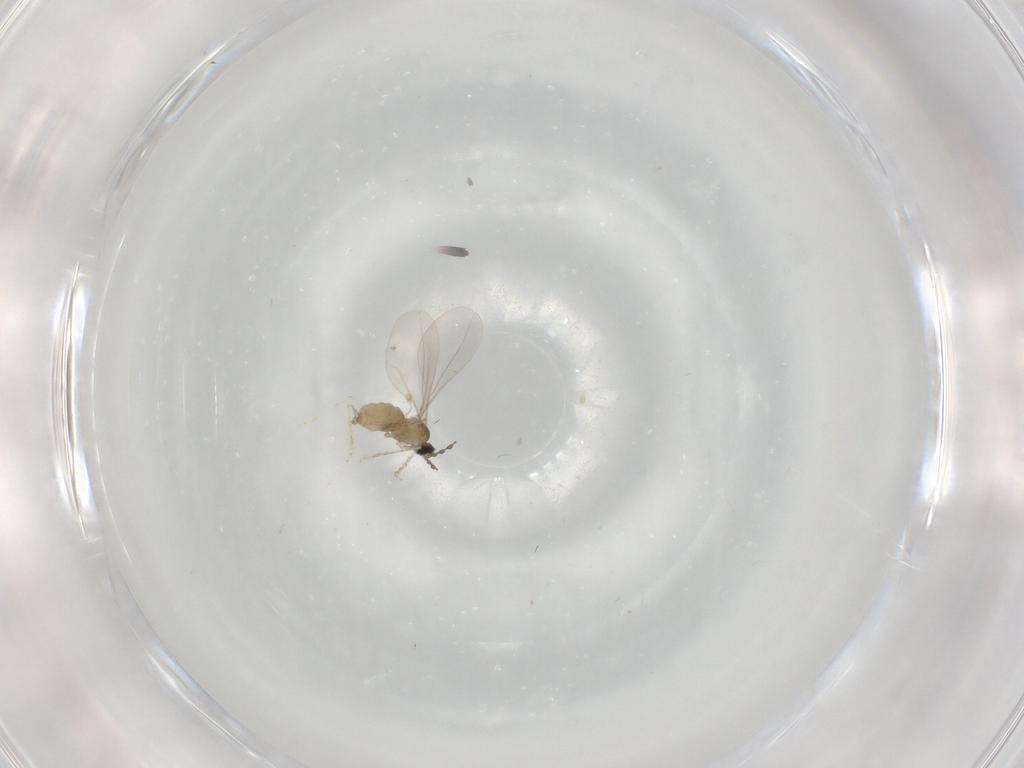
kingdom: Animalia
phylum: Arthropoda
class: Insecta
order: Diptera
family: Cecidomyiidae
